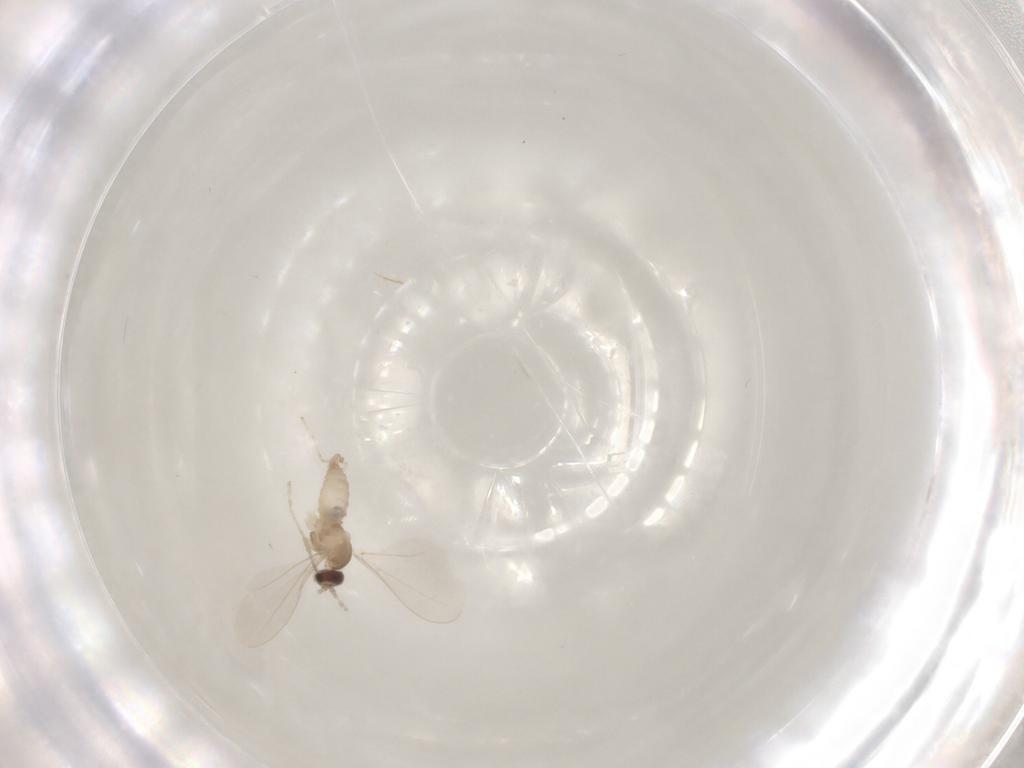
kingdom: Animalia
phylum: Arthropoda
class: Insecta
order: Diptera
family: Cecidomyiidae
